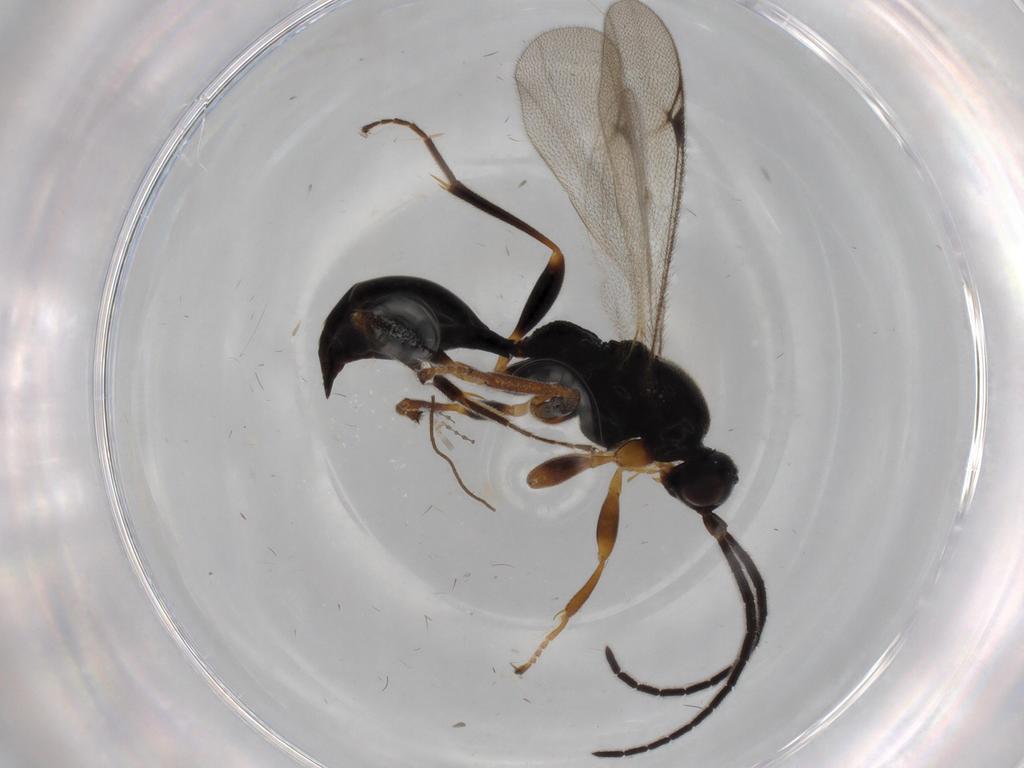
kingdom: Animalia
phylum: Arthropoda
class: Insecta
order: Hymenoptera
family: Proctotrupidae
